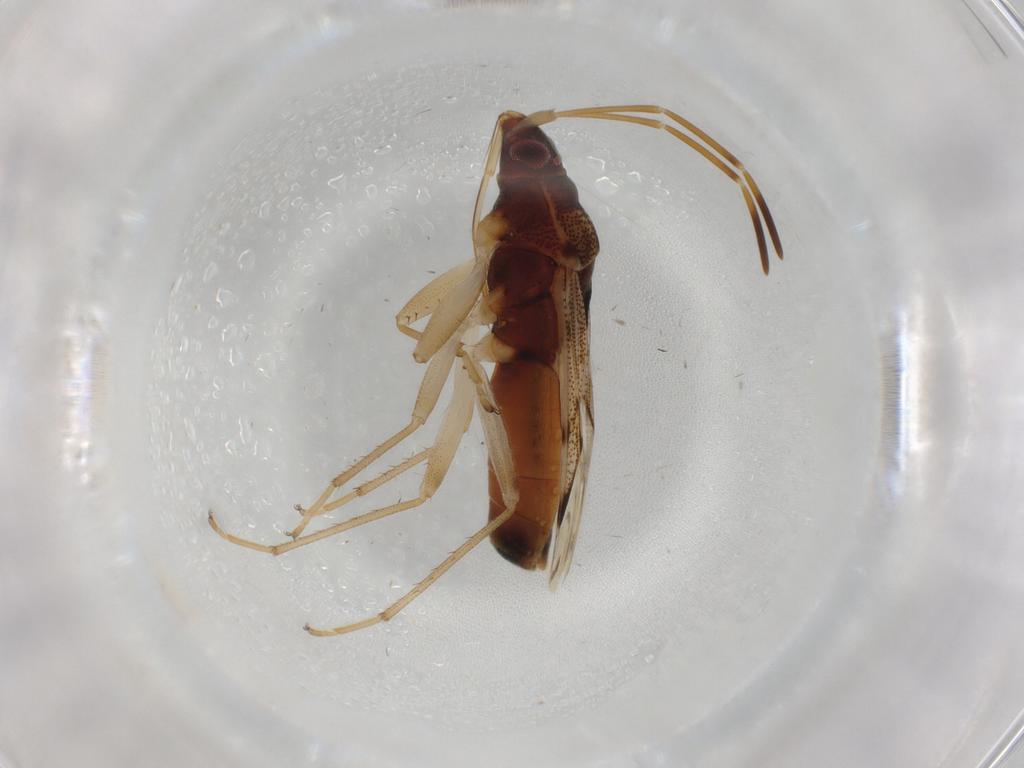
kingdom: Animalia
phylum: Arthropoda
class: Insecta
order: Hemiptera
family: Rhyparochromidae
